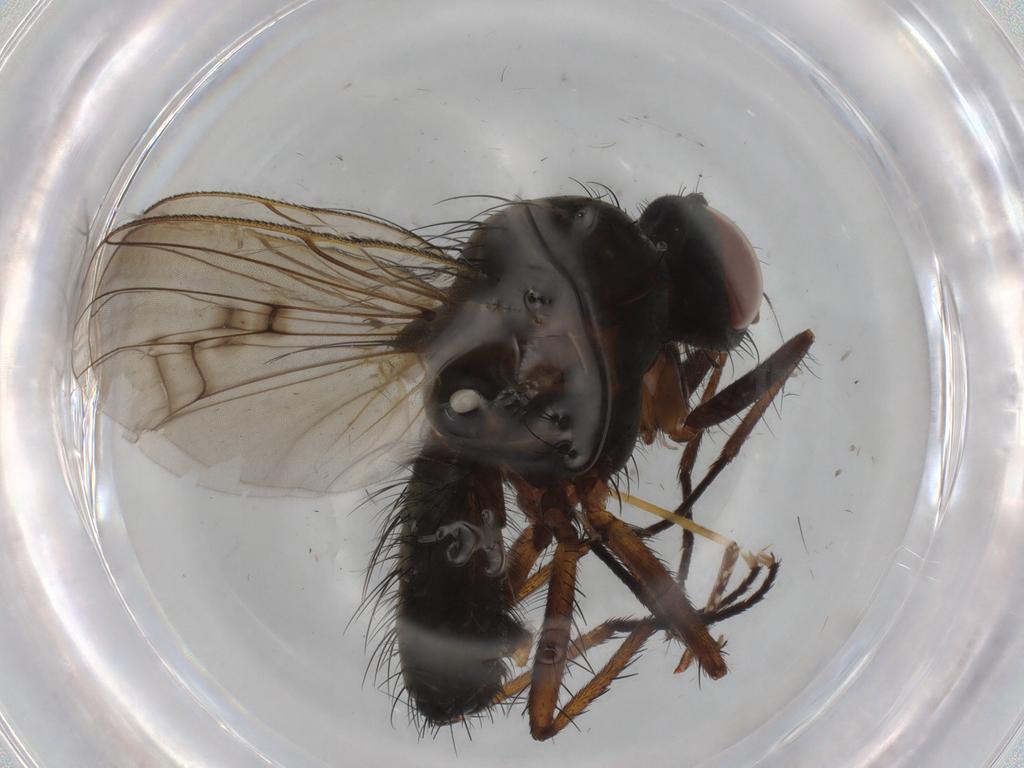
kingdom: Animalia
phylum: Arthropoda
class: Insecta
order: Diptera
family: Anthomyiidae
